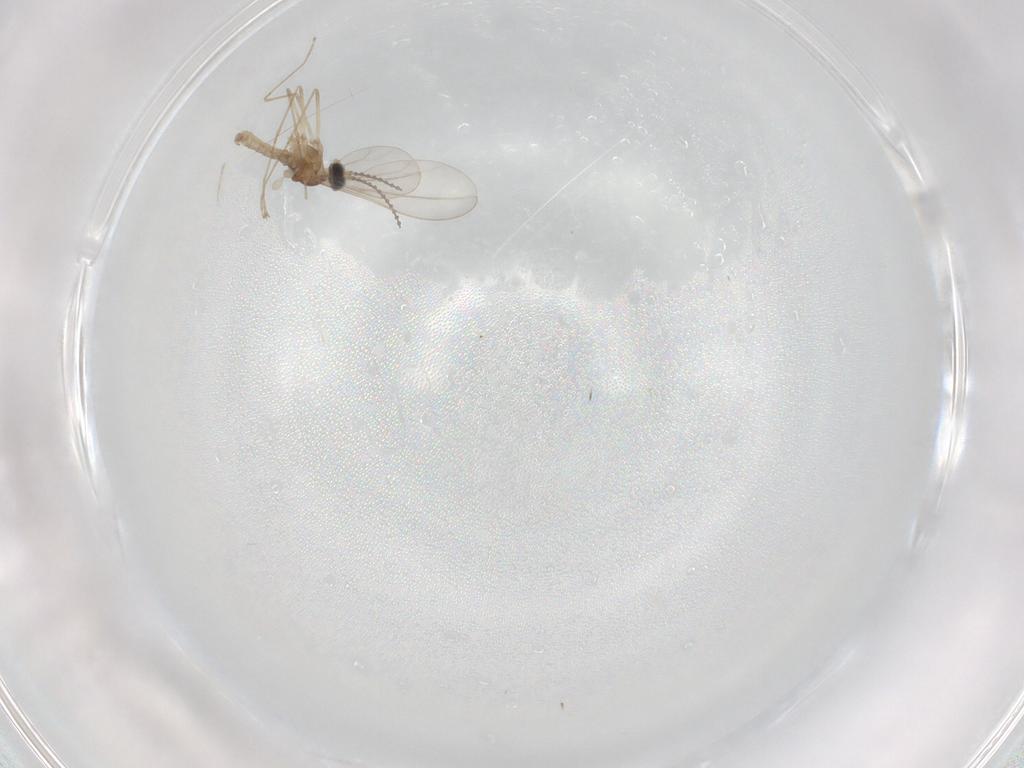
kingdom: Animalia
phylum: Arthropoda
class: Insecta
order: Diptera
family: Cecidomyiidae
